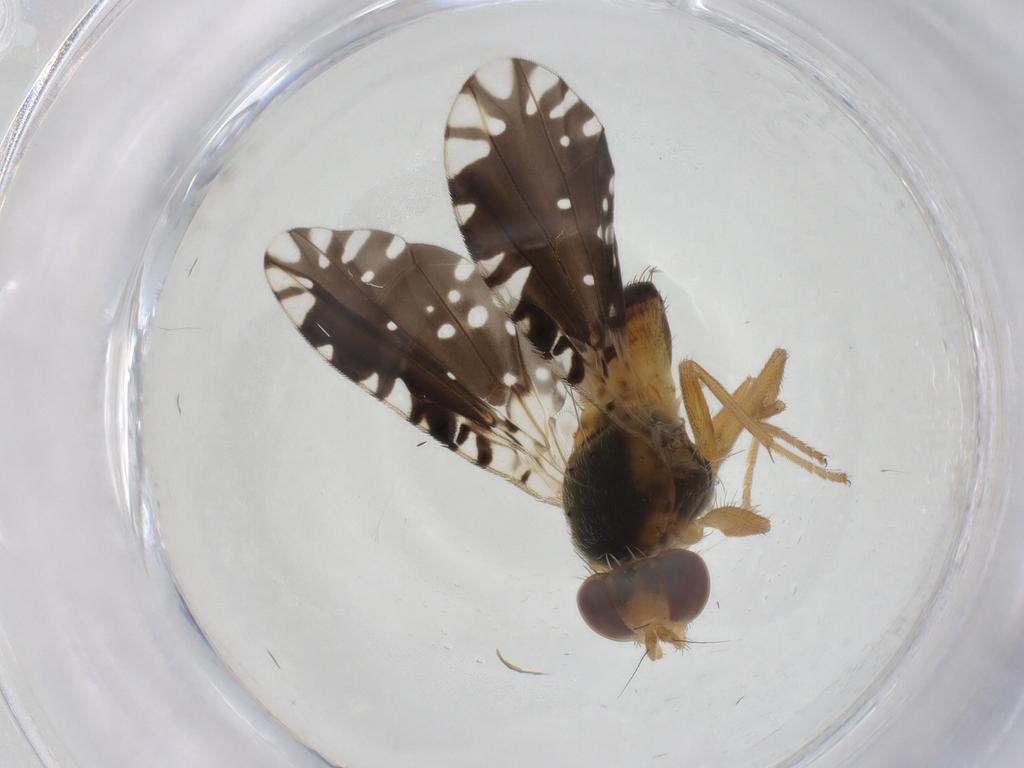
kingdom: Animalia
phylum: Arthropoda
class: Insecta
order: Diptera
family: Tephritidae
